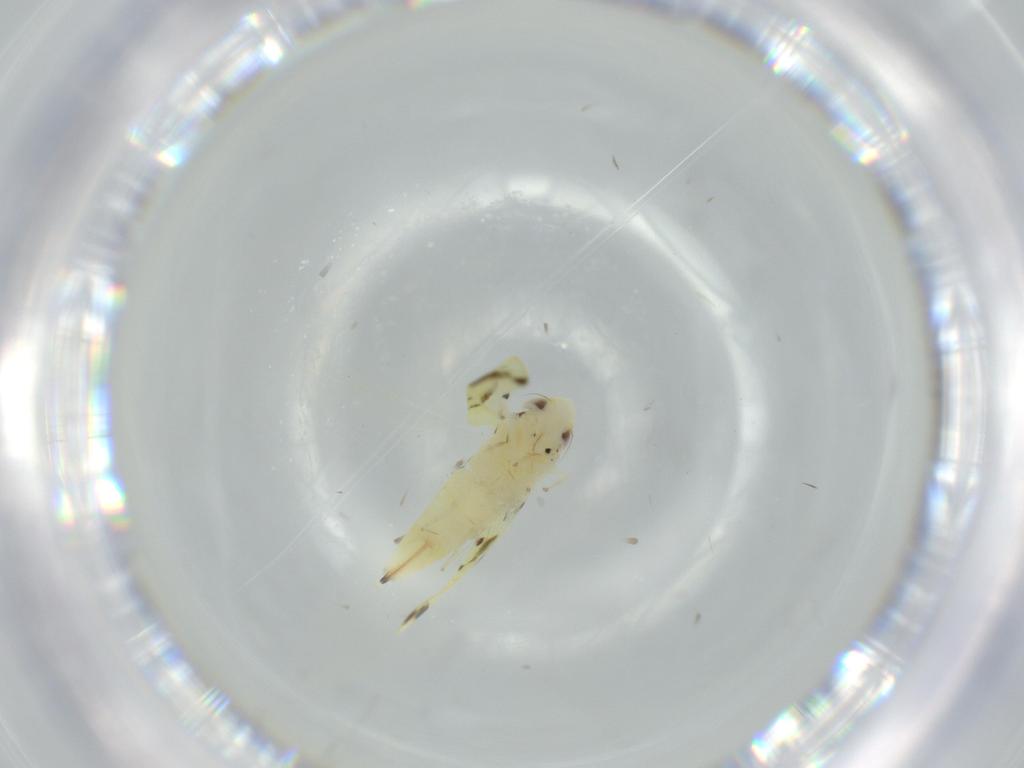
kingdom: Animalia
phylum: Arthropoda
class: Insecta
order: Hemiptera
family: Cicadellidae
